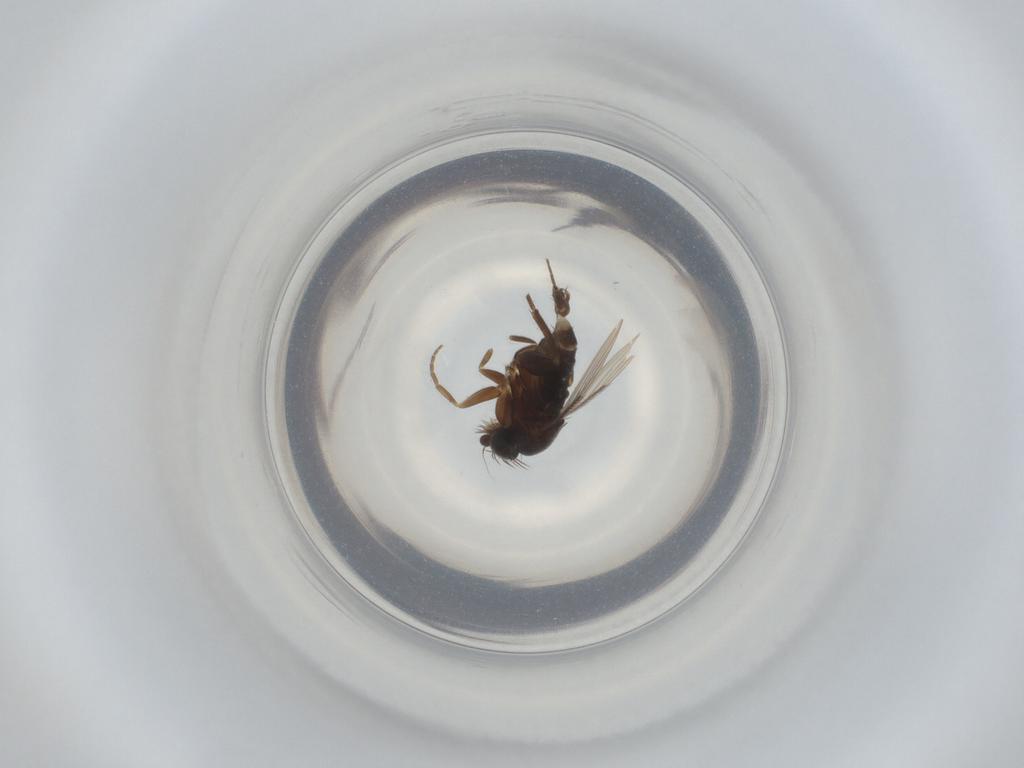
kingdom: Animalia
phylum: Arthropoda
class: Insecta
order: Diptera
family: Phoridae
